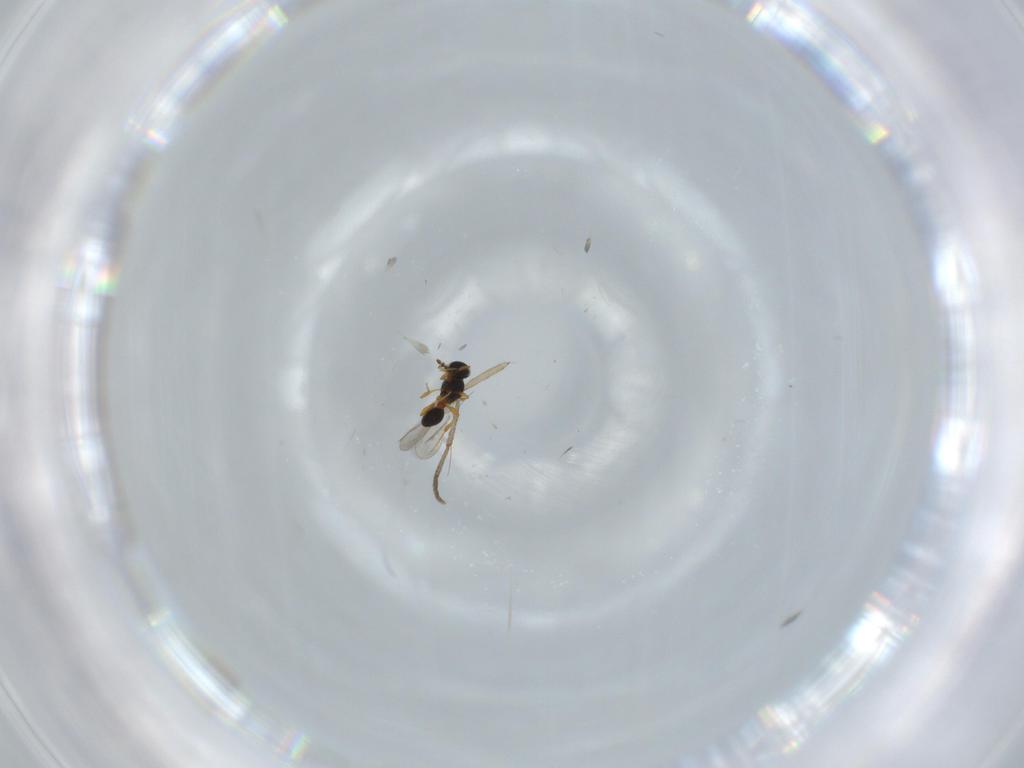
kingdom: Animalia
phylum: Arthropoda
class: Insecta
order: Hymenoptera
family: Platygastridae
